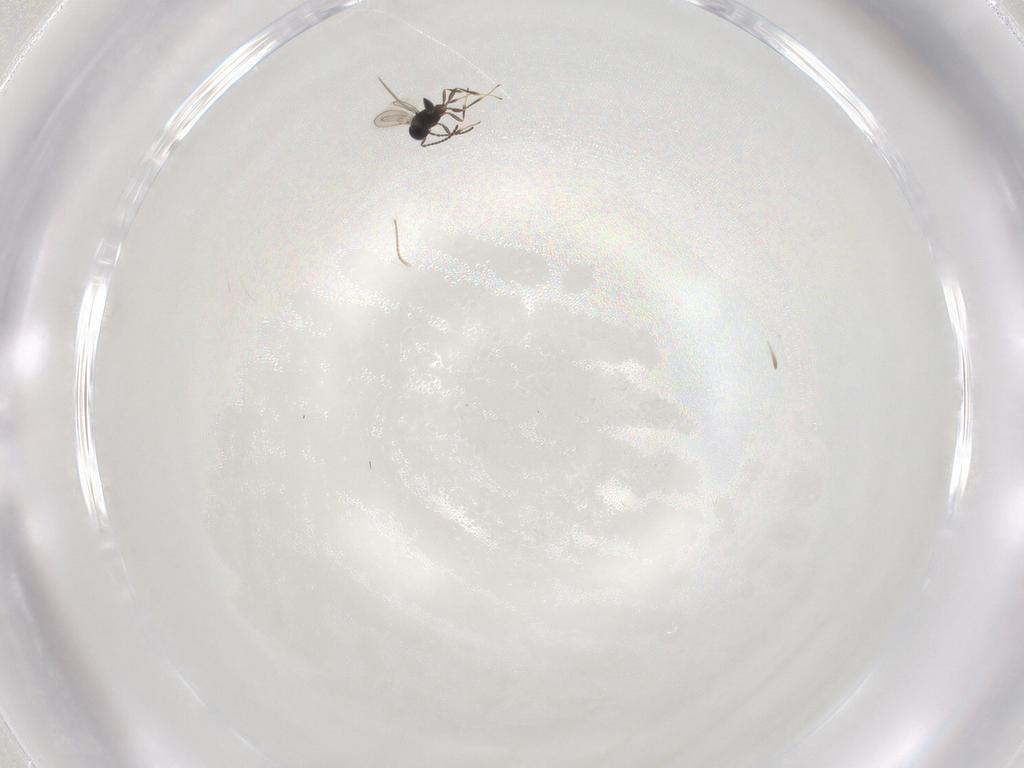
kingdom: Animalia
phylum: Arthropoda
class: Insecta
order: Hymenoptera
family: Scelionidae
